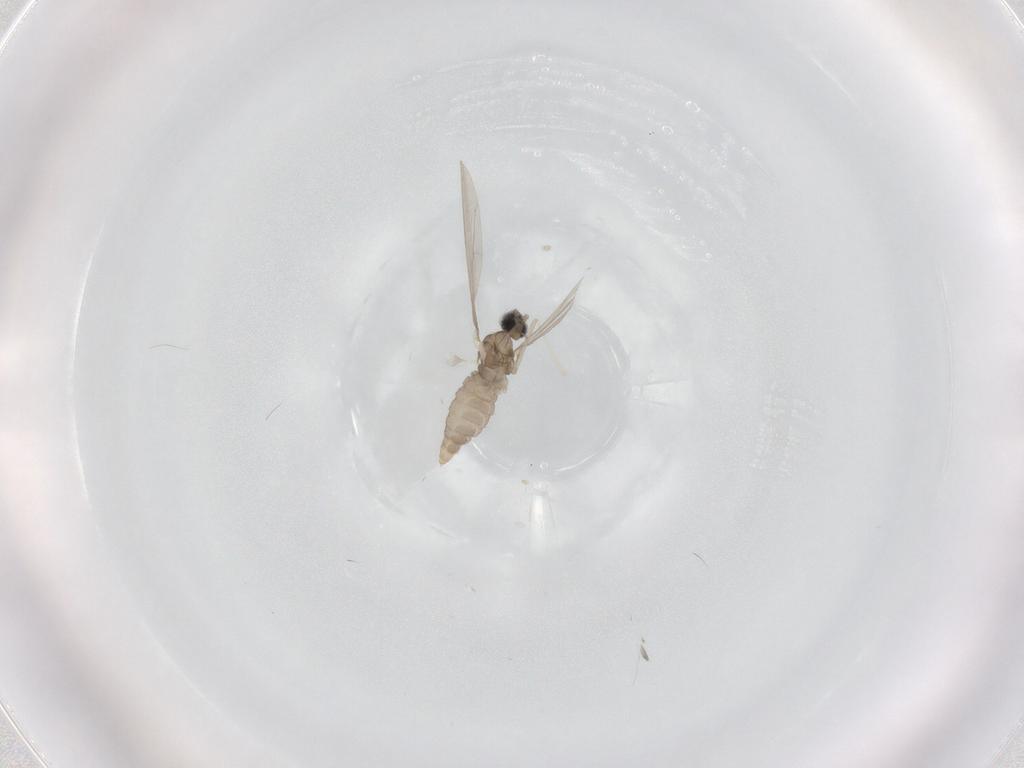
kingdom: Animalia
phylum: Arthropoda
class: Insecta
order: Diptera
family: Cecidomyiidae
